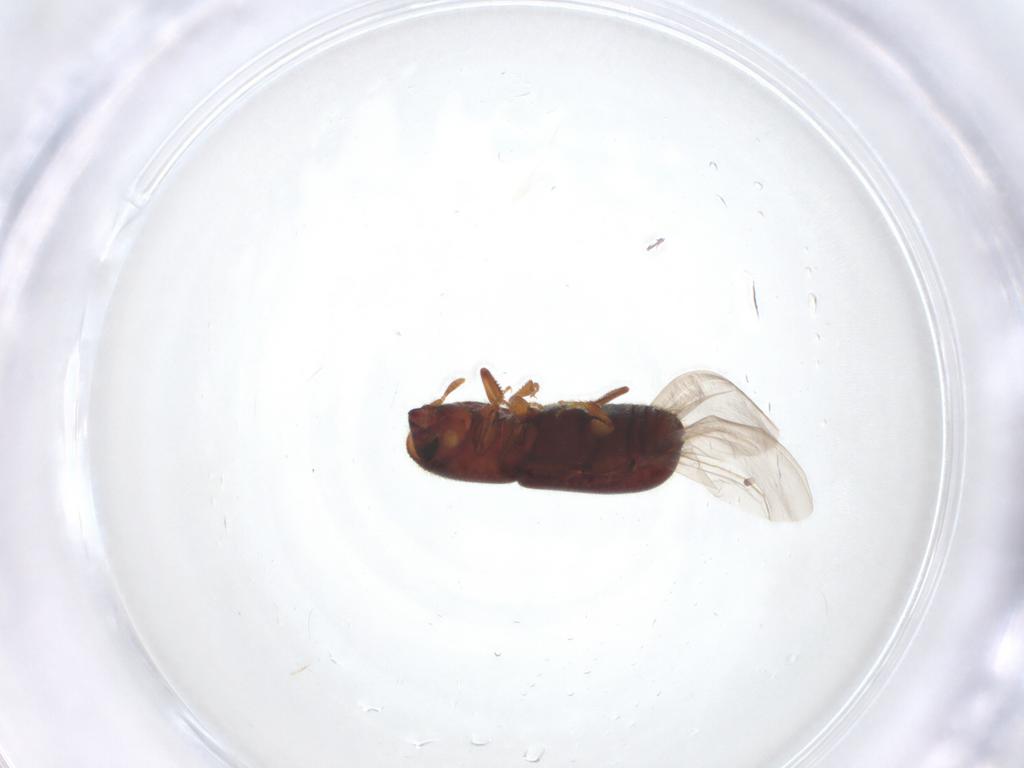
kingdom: Animalia
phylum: Arthropoda
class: Insecta
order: Coleoptera
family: Curculionidae
